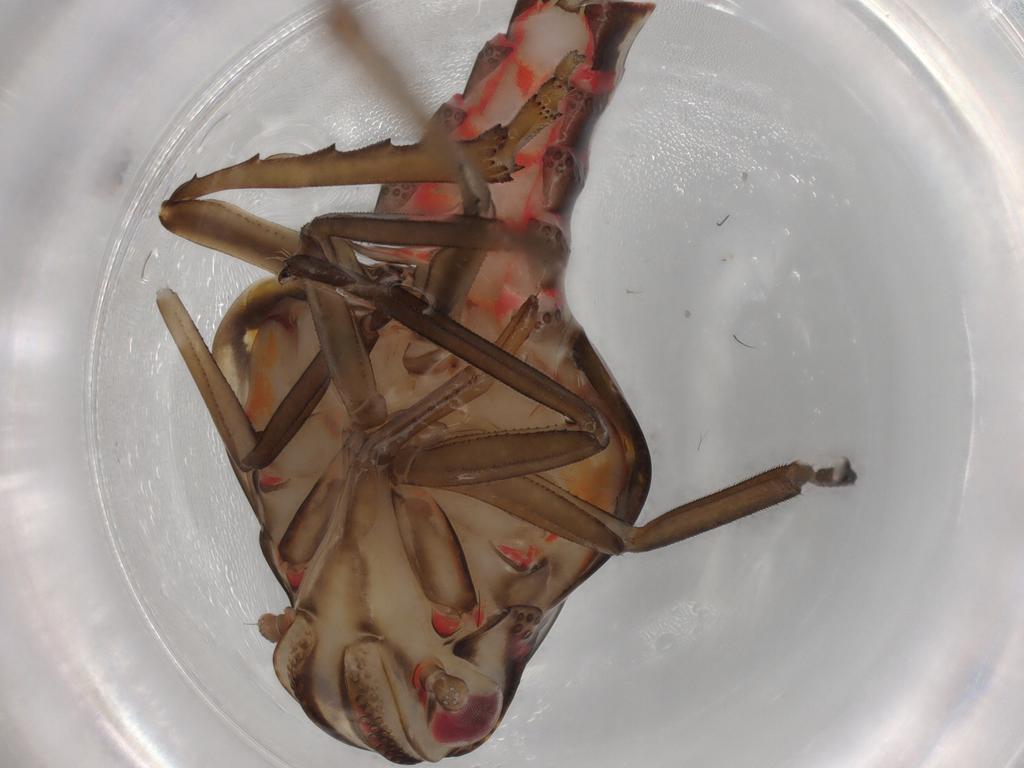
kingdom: Animalia
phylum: Arthropoda
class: Insecta
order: Hemiptera
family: Nogodinidae
